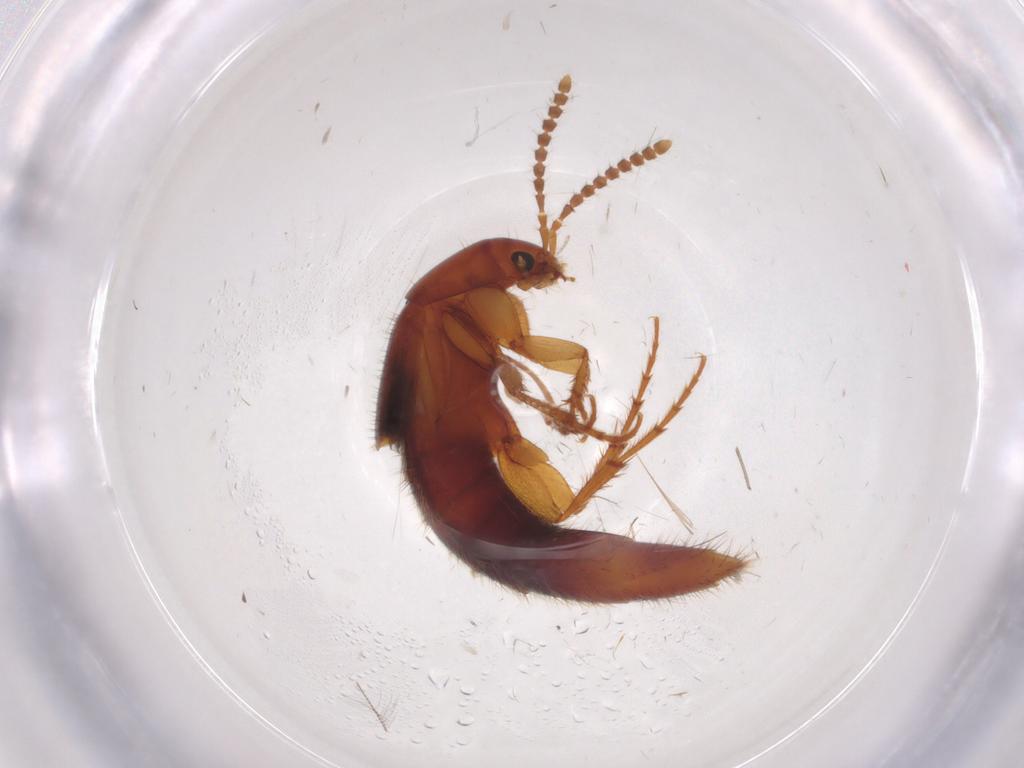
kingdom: Animalia
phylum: Arthropoda
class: Insecta
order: Coleoptera
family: Staphylinidae
